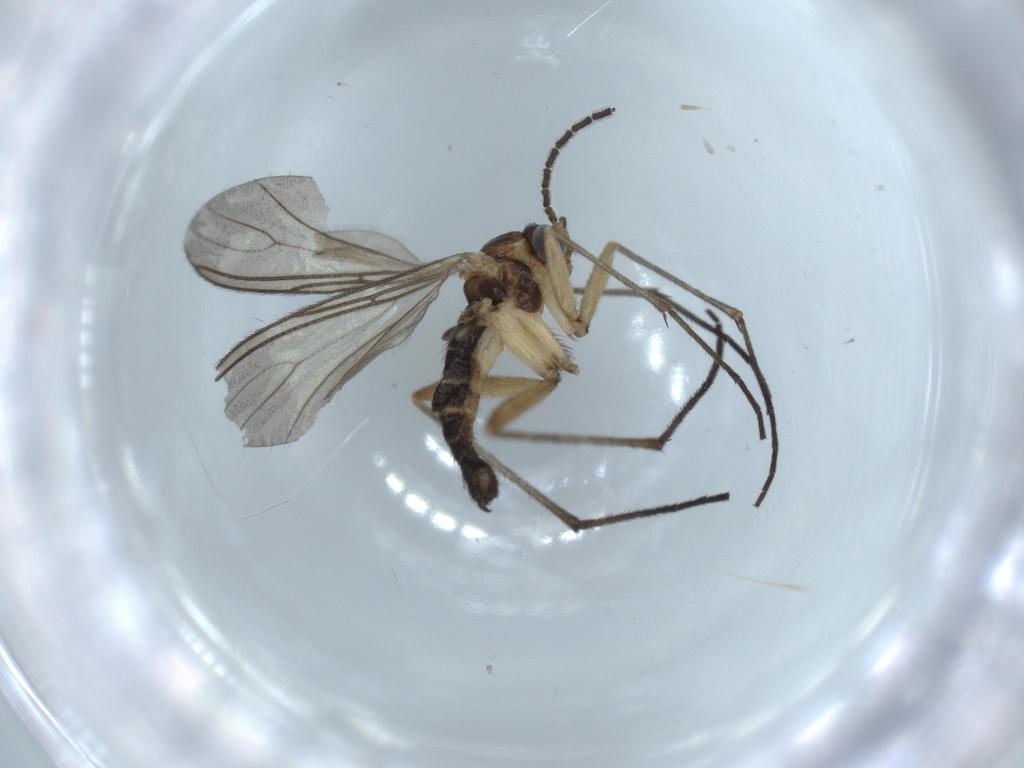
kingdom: Animalia
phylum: Arthropoda
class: Insecta
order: Diptera
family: Sciaridae
